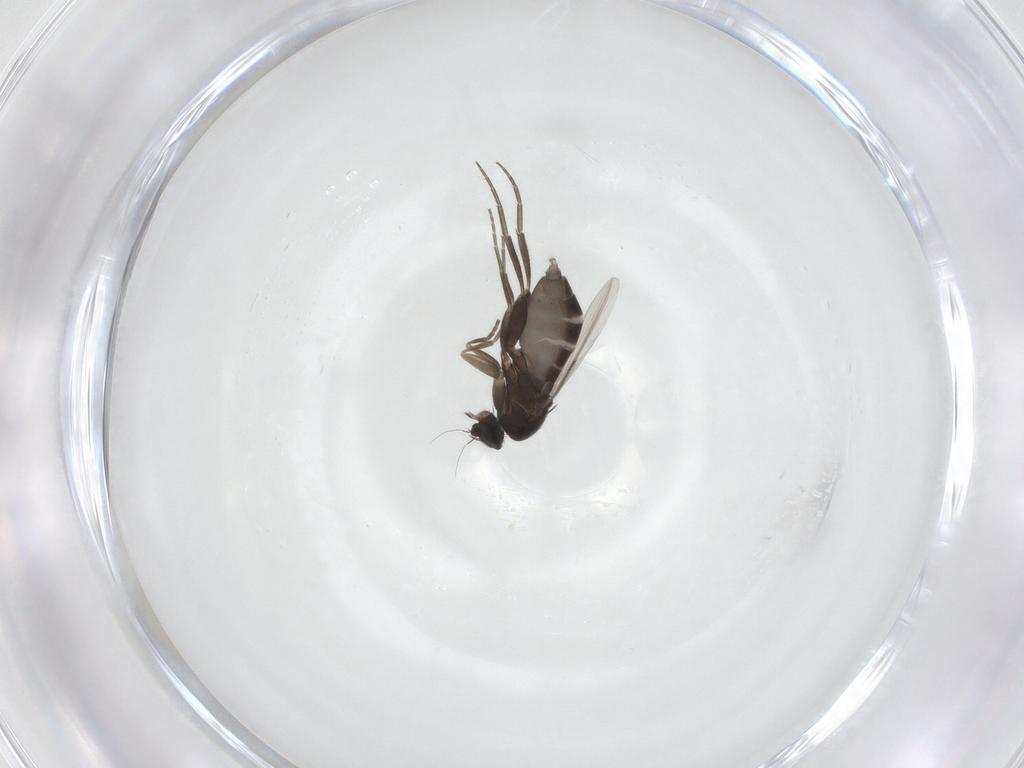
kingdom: Animalia
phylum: Arthropoda
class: Insecta
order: Diptera
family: Phoridae
